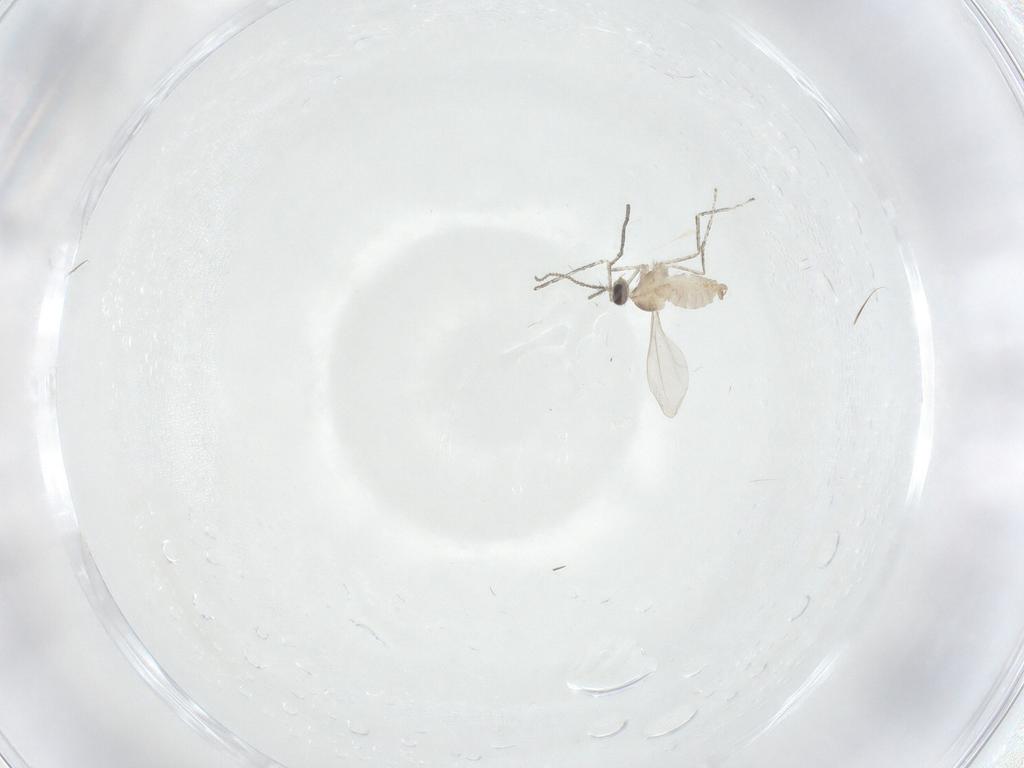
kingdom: Animalia
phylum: Arthropoda
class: Insecta
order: Diptera
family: Cecidomyiidae
